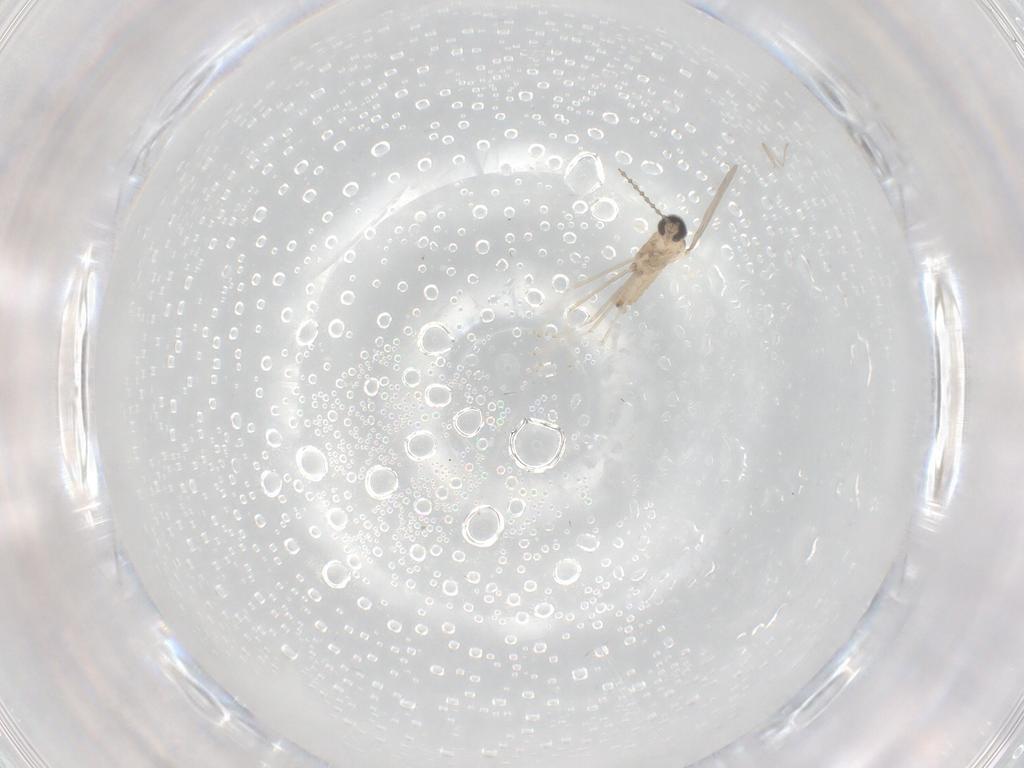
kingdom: Animalia
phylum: Arthropoda
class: Insecta
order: Diptera
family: Cecidomyiidae
